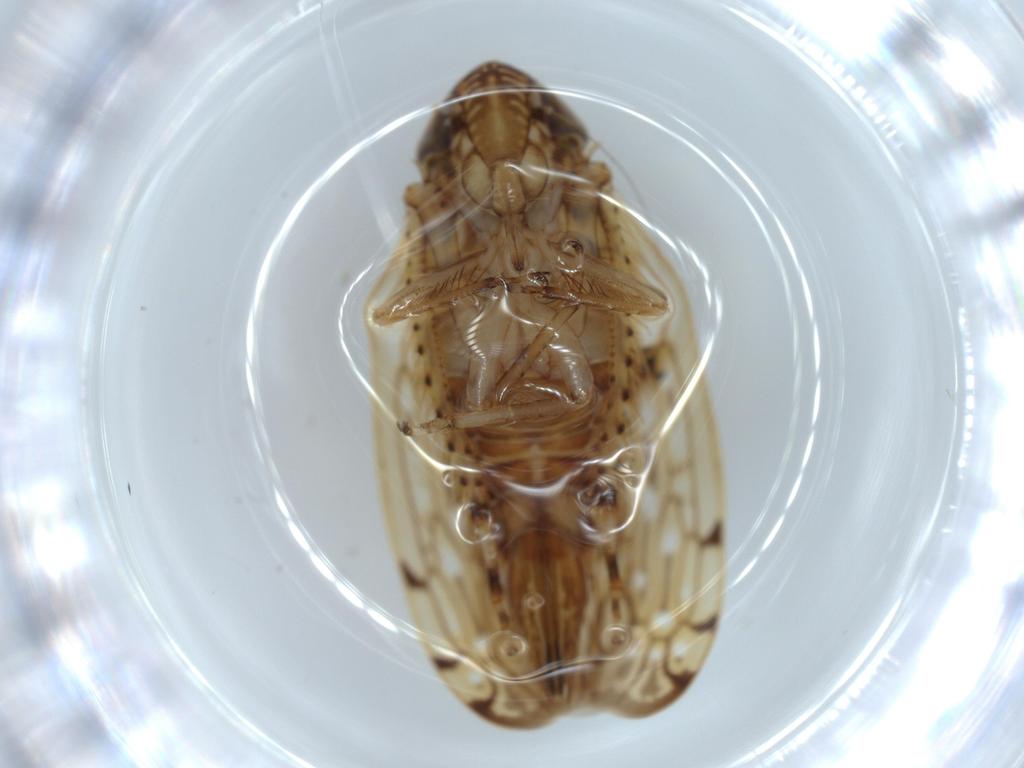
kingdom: Animalia
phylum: Arthropoda
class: Insecta
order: Hemiptera
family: Cicadellidae
